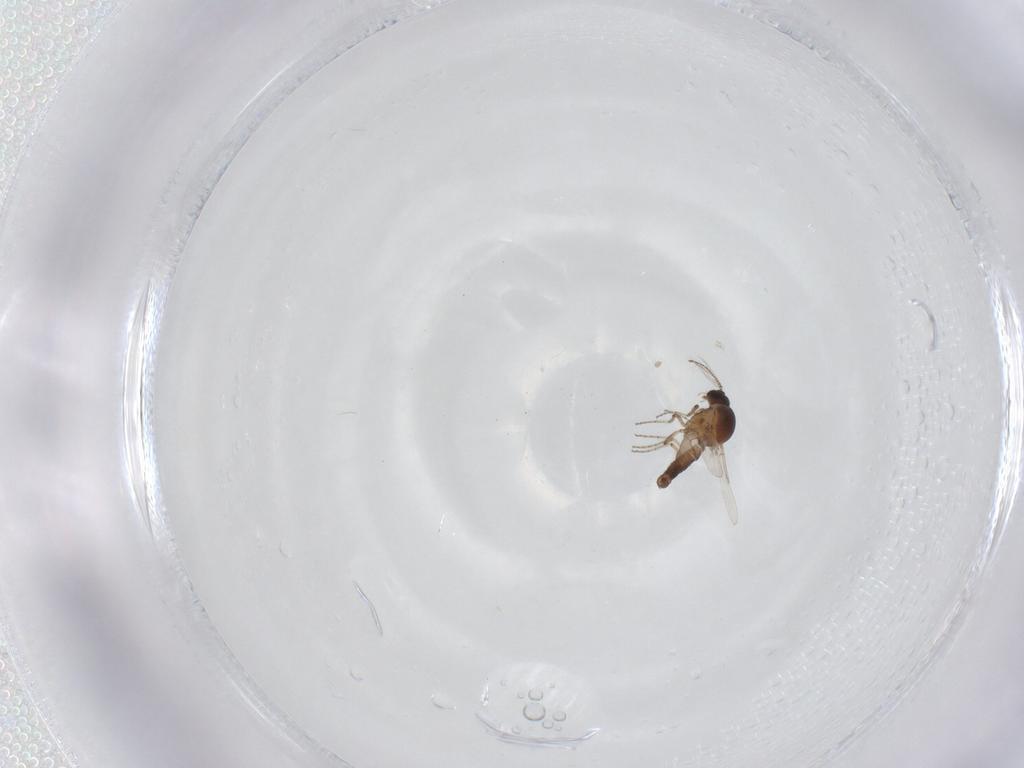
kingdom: Animalia
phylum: Arthropoda
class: Insecta
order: Diptera
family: Ceratopogonidae
